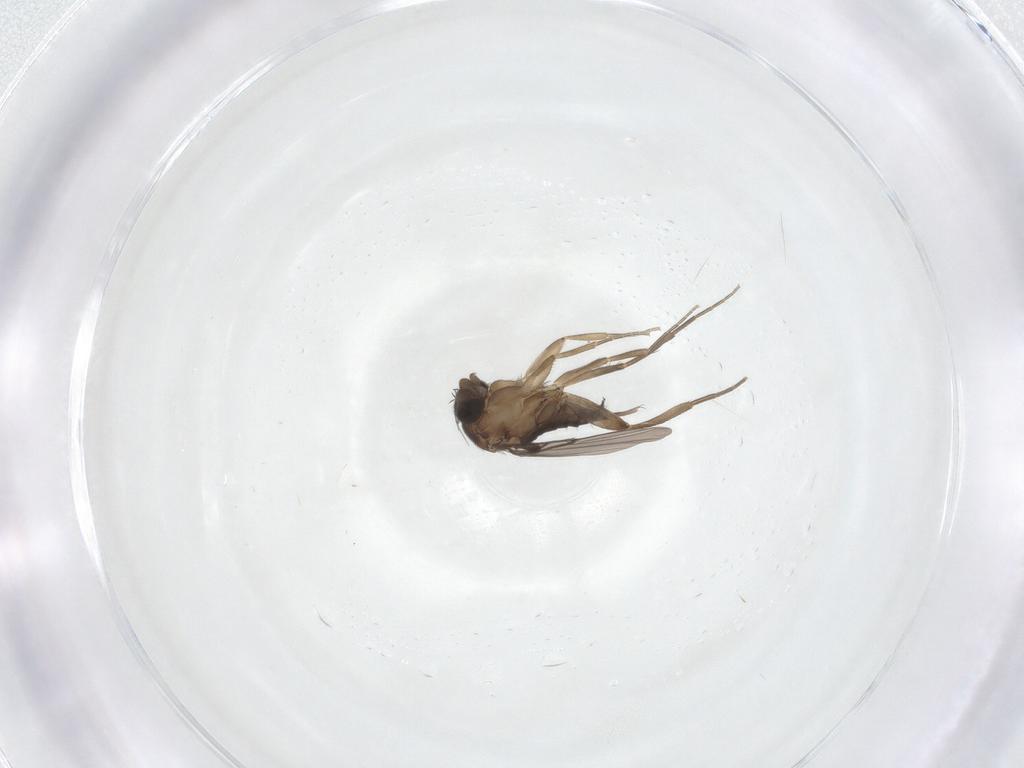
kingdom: Animalia
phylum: Arthropoda
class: Insecta
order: Diptera
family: Phoridae
